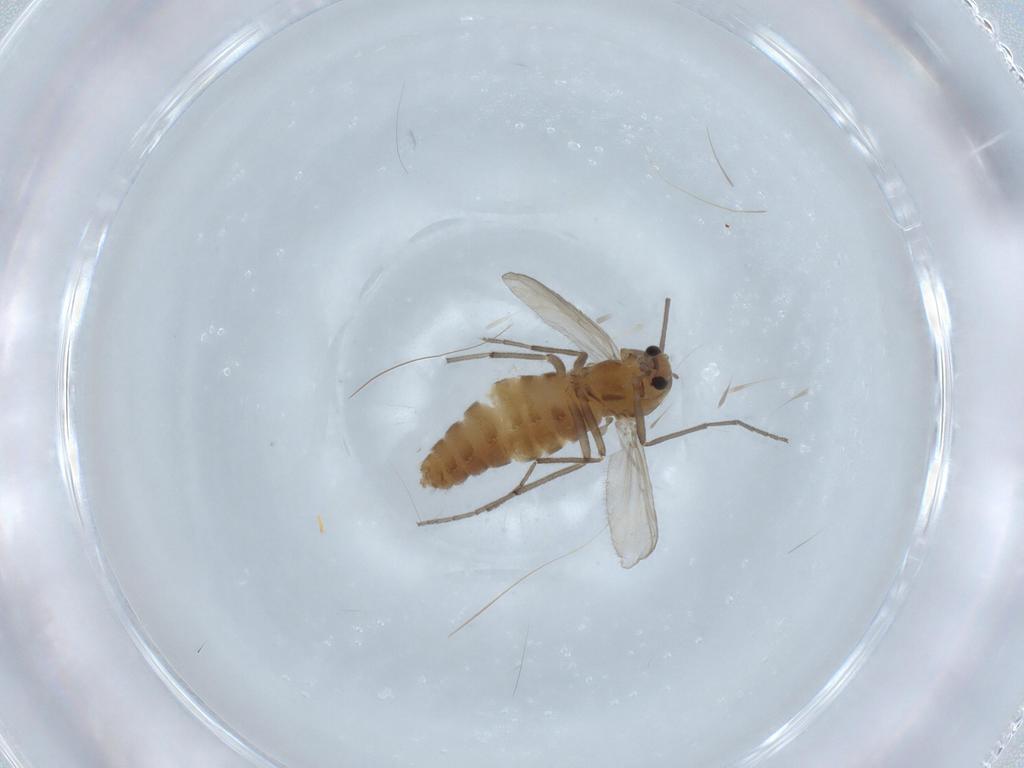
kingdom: Animalia
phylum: Arthropoda
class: Insecta
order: Diptera
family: Chironomidae
